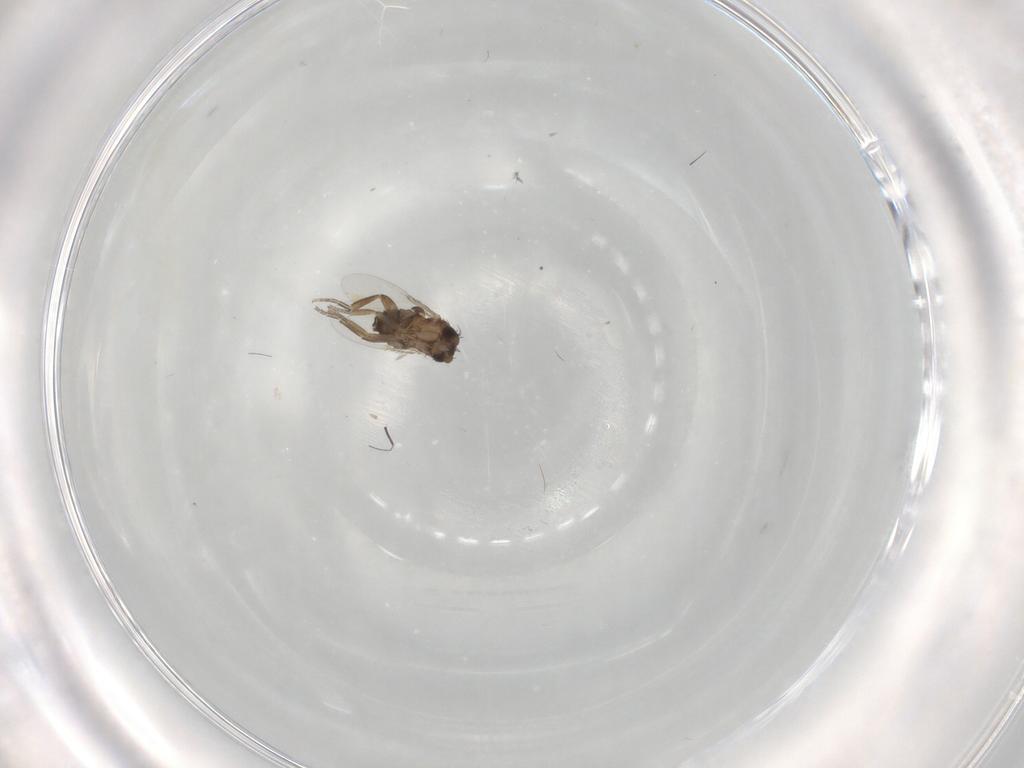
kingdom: Animalia
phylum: Arthropoda
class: Insecta
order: Diptera
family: Phoridae
